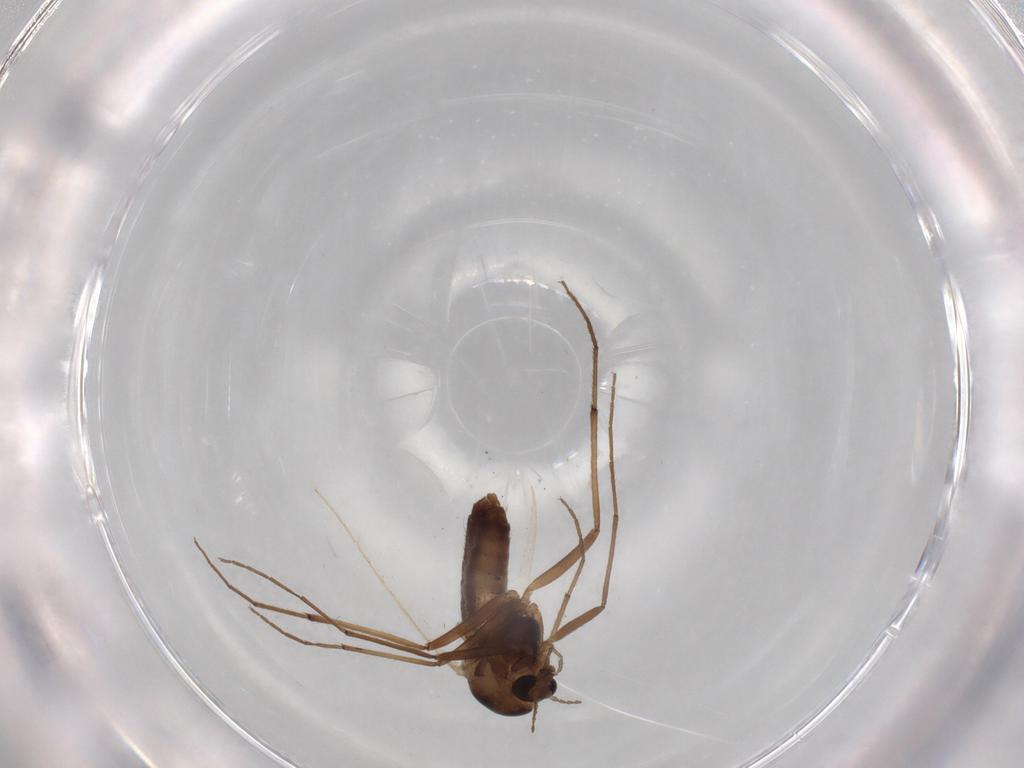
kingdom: Animalia
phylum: Arthropoda
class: Insecta
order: Diptera
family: Chironomidae
